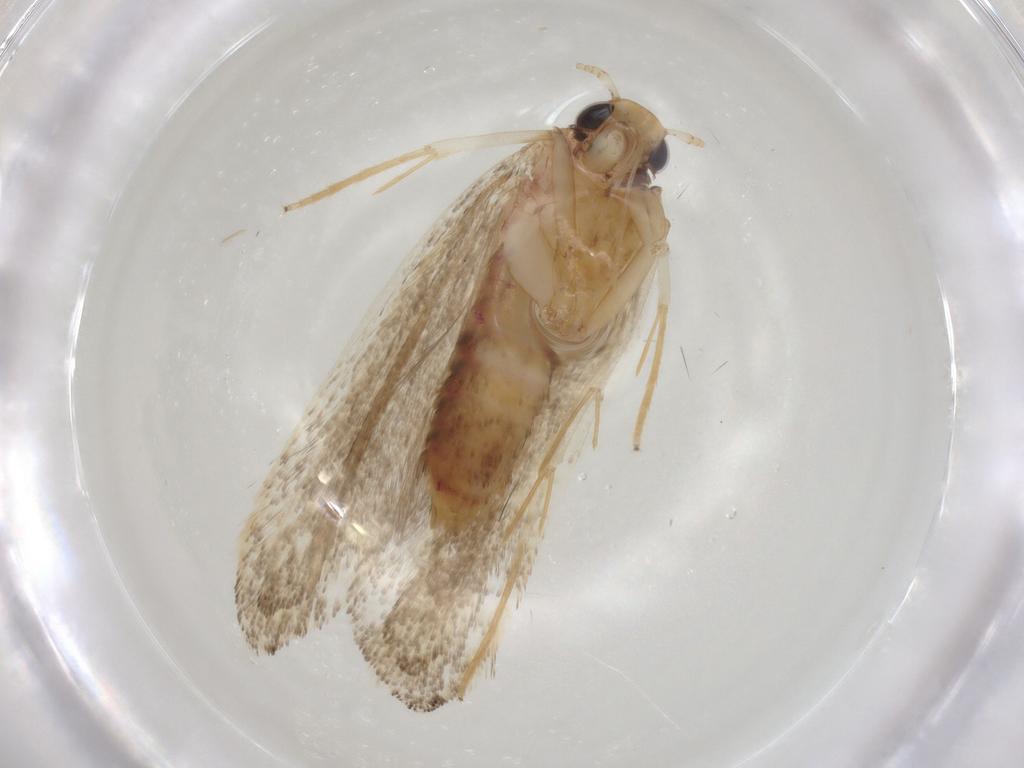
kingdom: Animalia
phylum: Arthropoda
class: Insecta
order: Lepidoptera
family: Lecithoceridae
